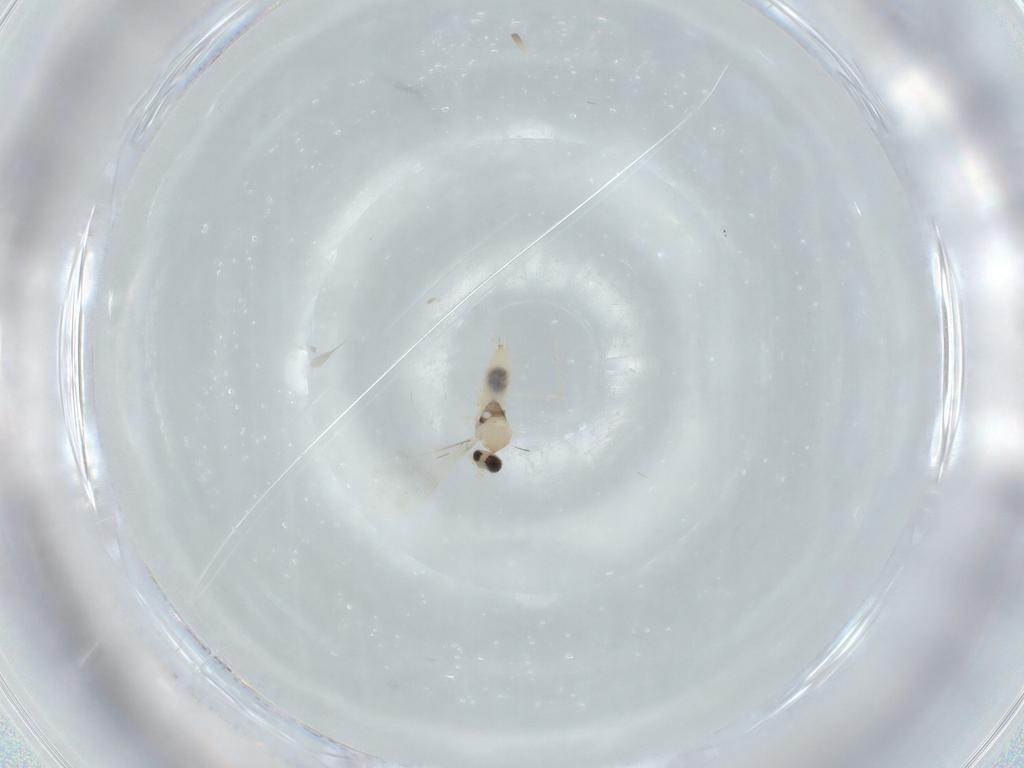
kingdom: Animalia
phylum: Arthropoda
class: Insecta
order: Diptera
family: Cecidomyiidae
